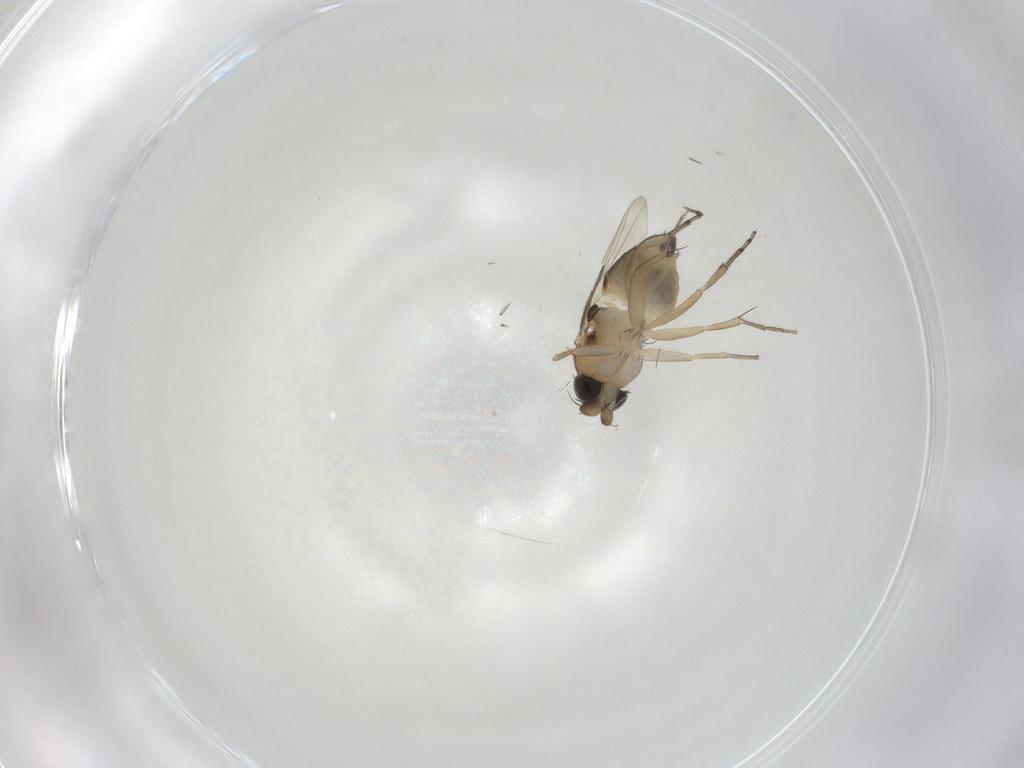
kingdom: Animalia
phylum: Arthropoda
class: Insecta
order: Diptera
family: Phoridae
